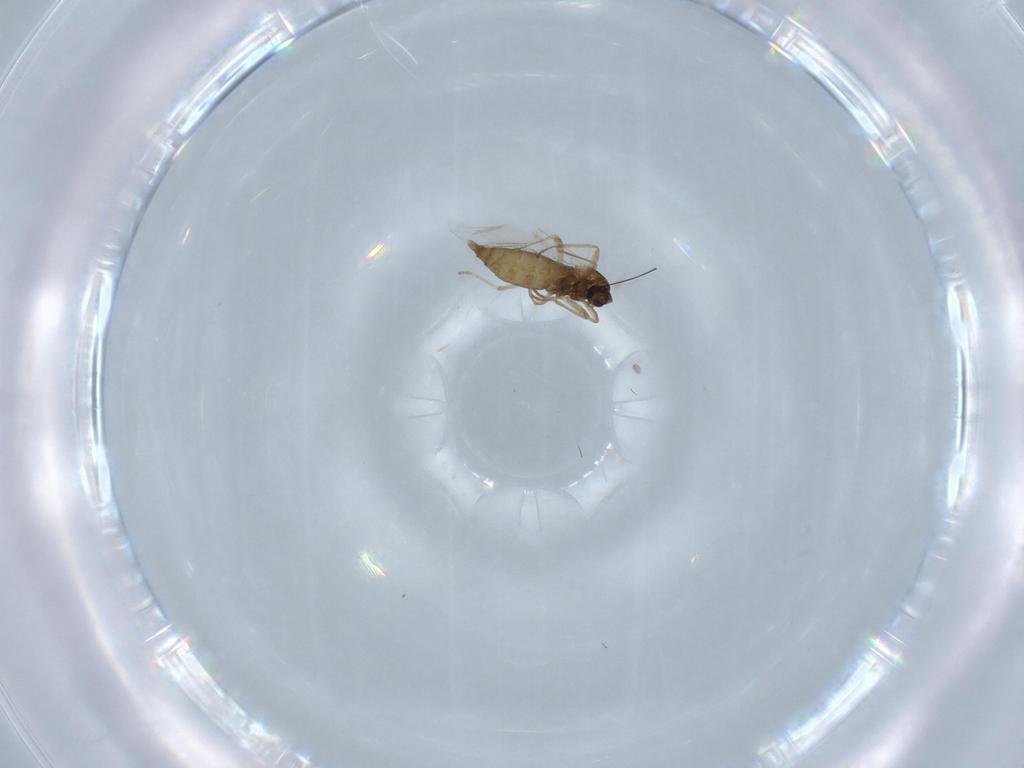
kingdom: Animalia
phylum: Arthropoda
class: Insecta
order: Diptera
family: Cecidomyiidae
